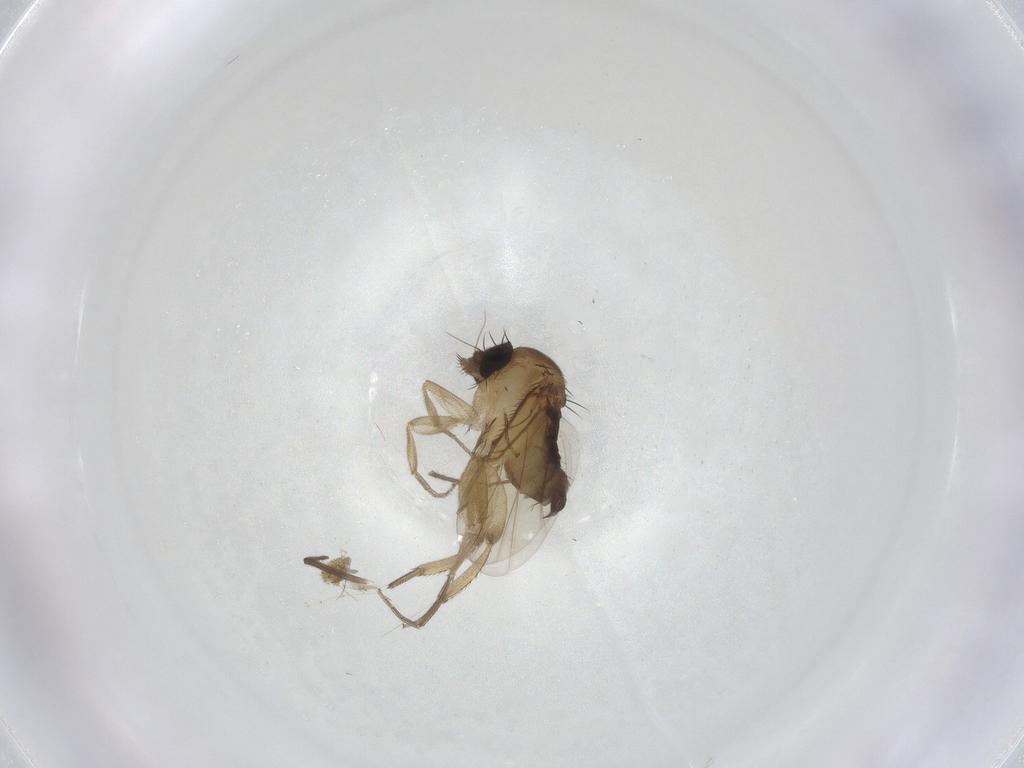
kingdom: Animalia
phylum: Arthropoda
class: Insecta
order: Diptera
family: Phoridae
